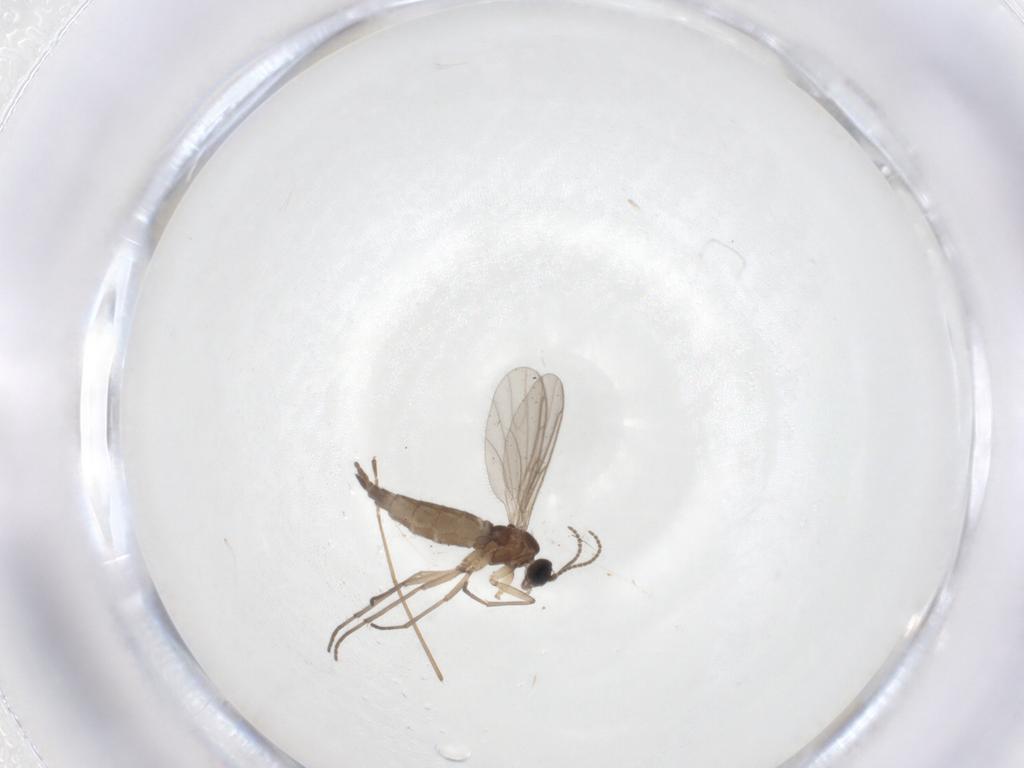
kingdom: Animalia
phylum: Arthropoda
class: Insecta
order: Diptera
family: Sciaridae
